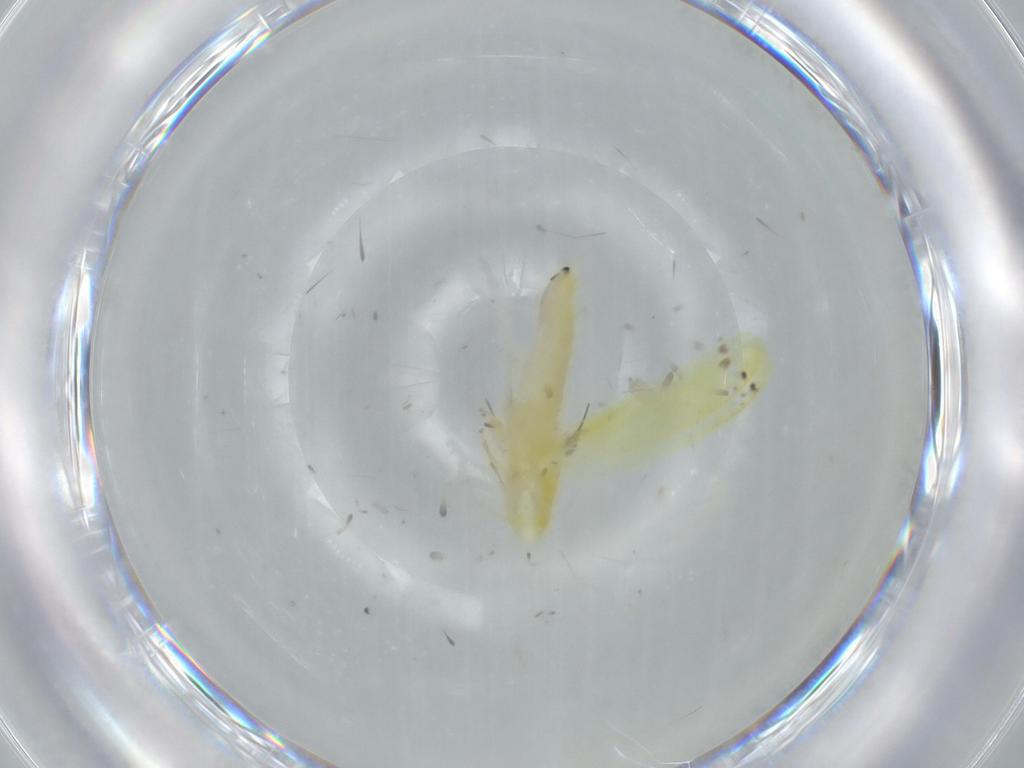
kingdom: Animalia
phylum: Arthropoda
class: Insecta
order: Hemiptera
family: Cicadellidae
